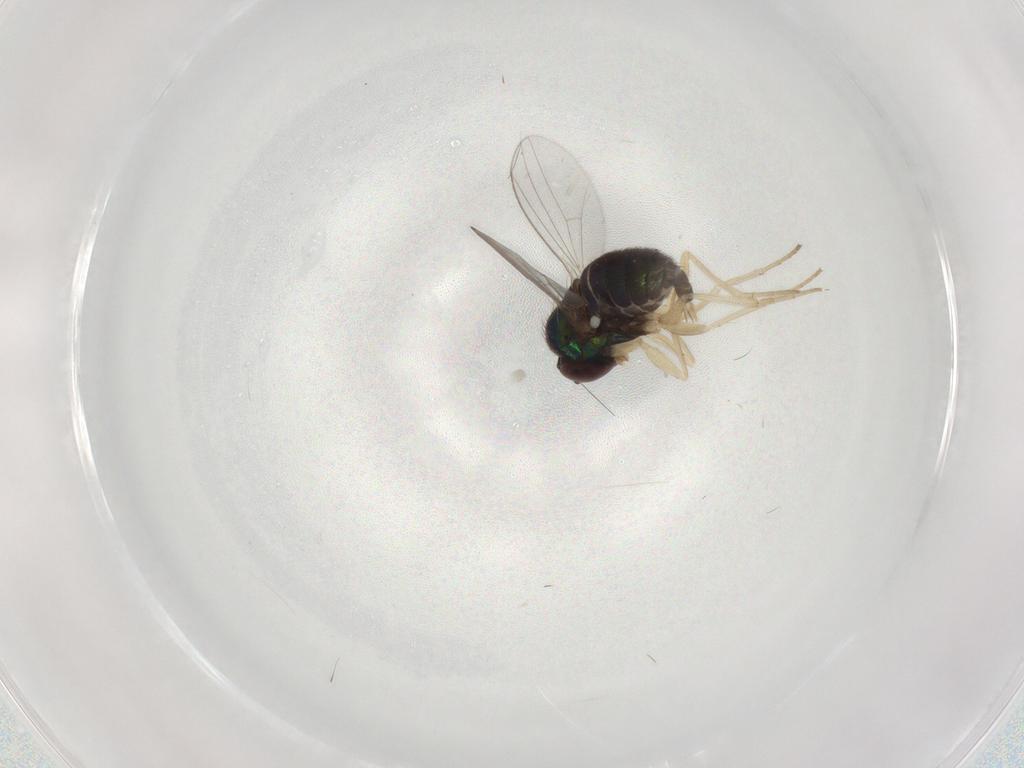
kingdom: Animalia
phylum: Arthropoda
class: Insecta
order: Diptera
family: Dolichopodidae
